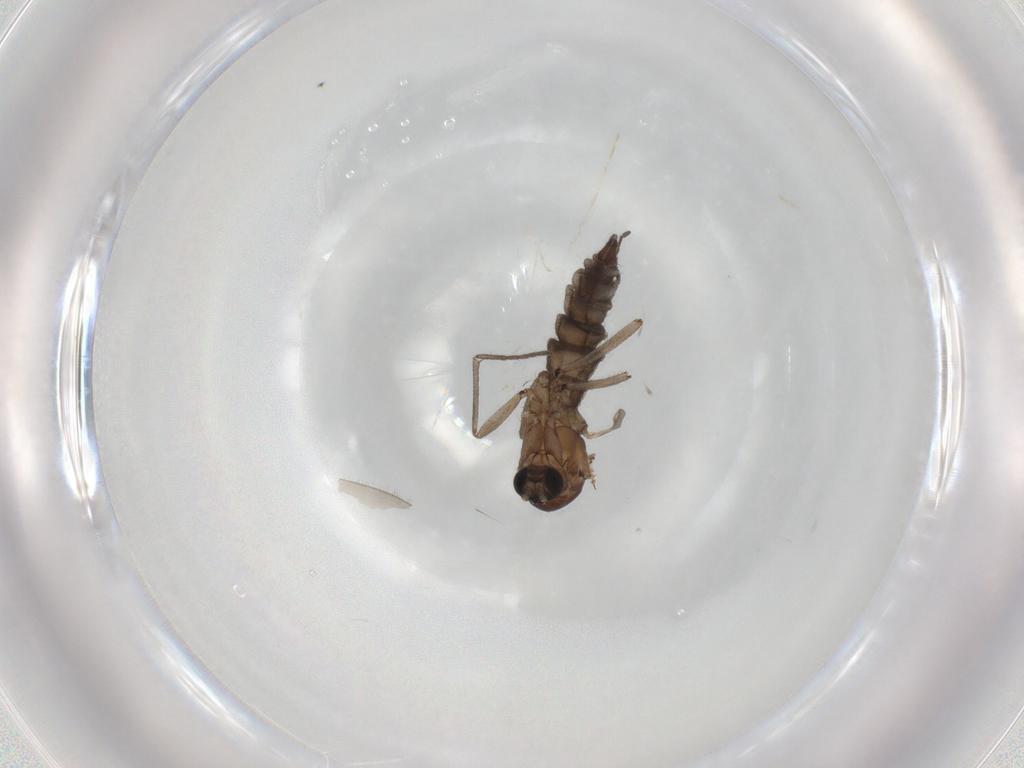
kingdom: Animalia
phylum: Arthropoda
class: Insecta
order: Diptera
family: Sciaridae
